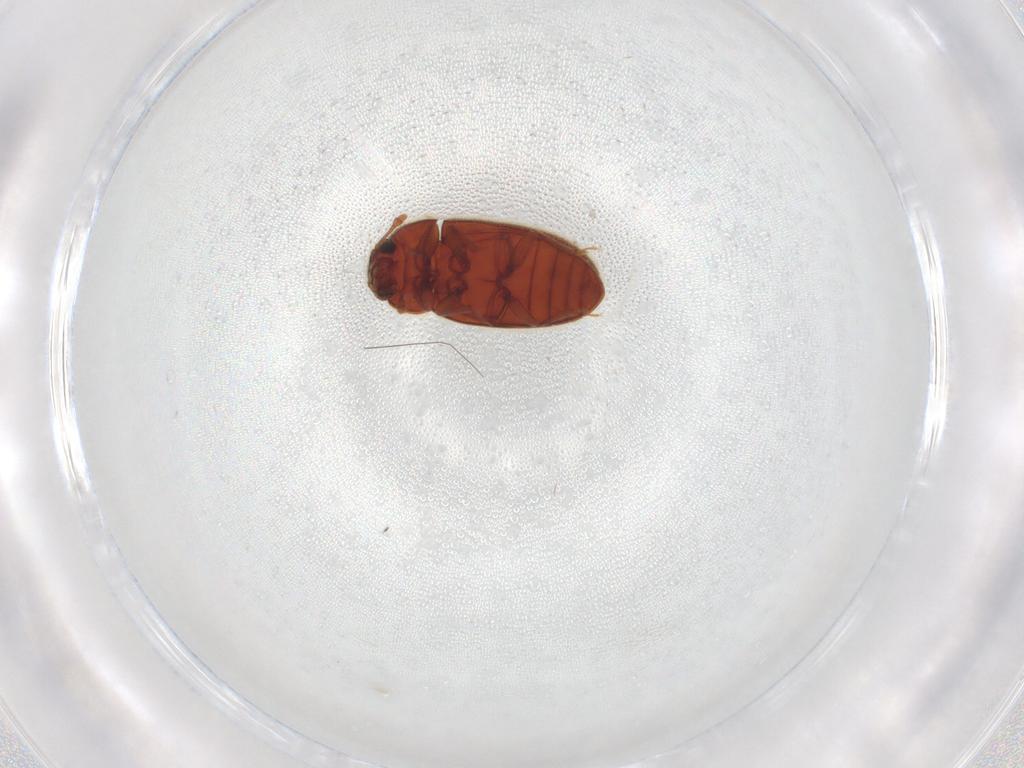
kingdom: Animalia
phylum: Arthropoda
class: Insecta
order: Coleoptera
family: Biphyllidae
